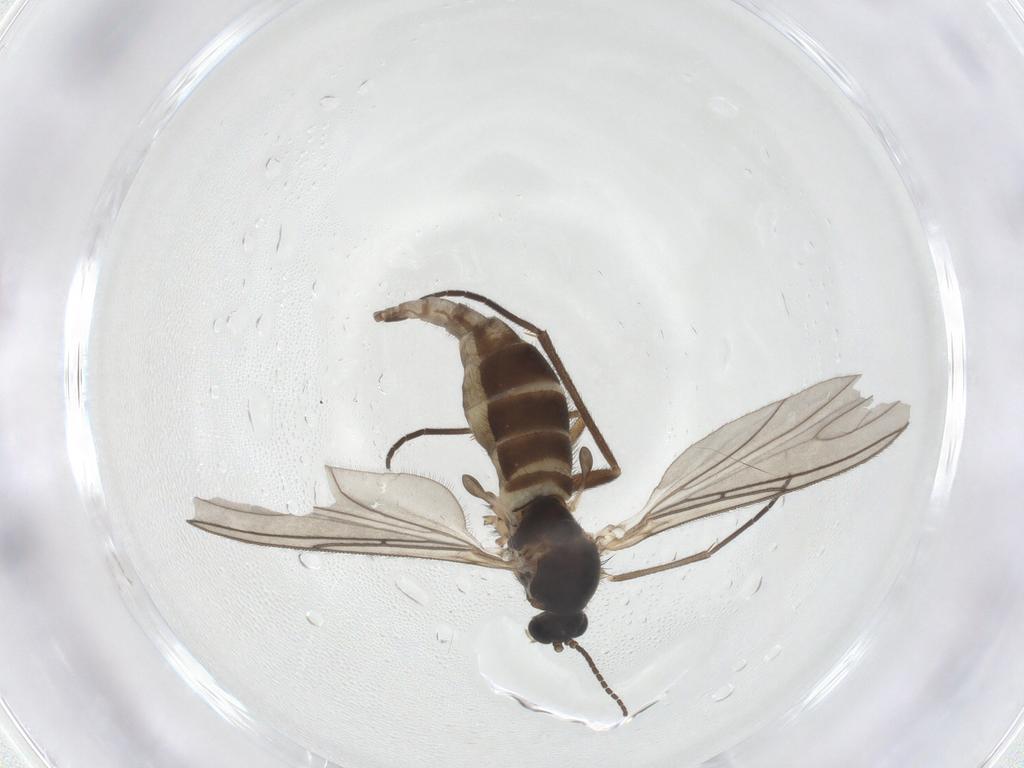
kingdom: Animalia
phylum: Arthropoda
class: Insecta
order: Diptera
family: Sciaridae
